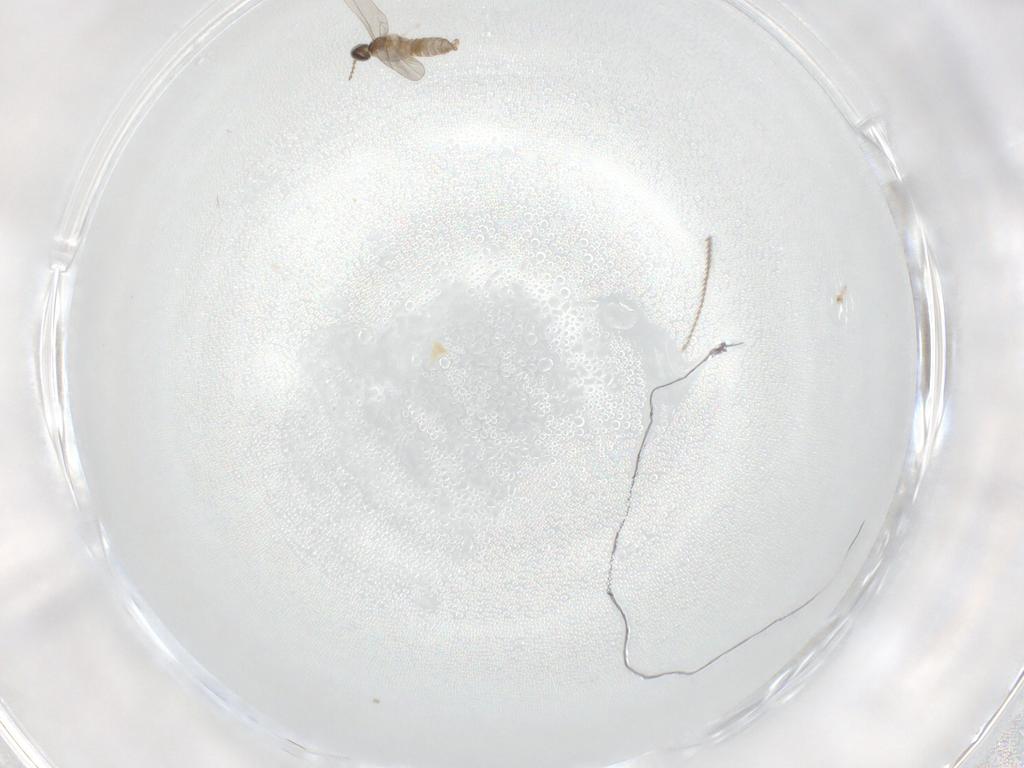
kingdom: Animalia
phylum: Arthropoda
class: Insecta
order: Diptera
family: Cecidomyiidae
